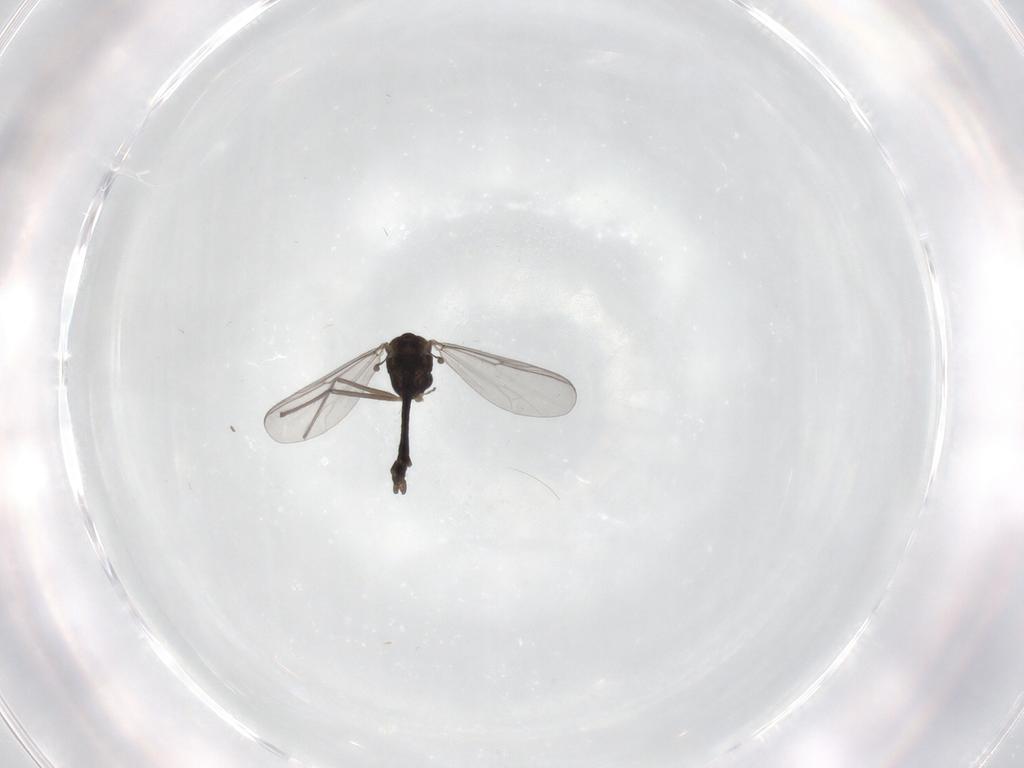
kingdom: Animalia
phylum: Arthropoda
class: Insecta
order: Diptera
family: Chironomidae
